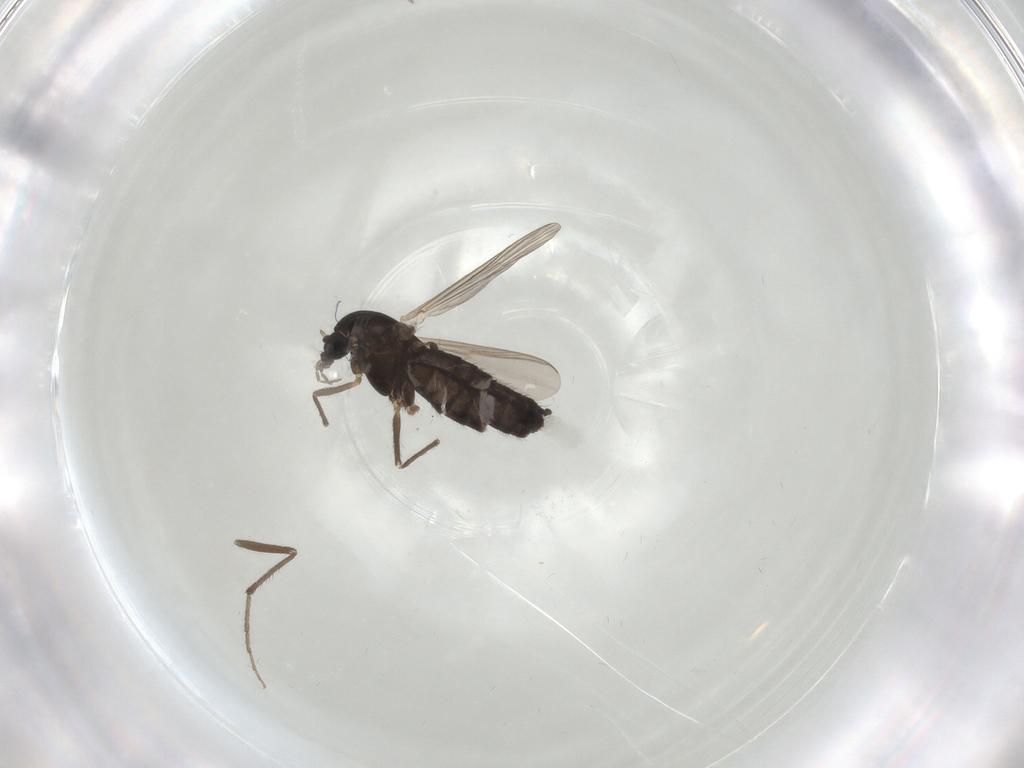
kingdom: Animalia
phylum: Arthropoda
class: Insecta
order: Diptera
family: Chironomidae
